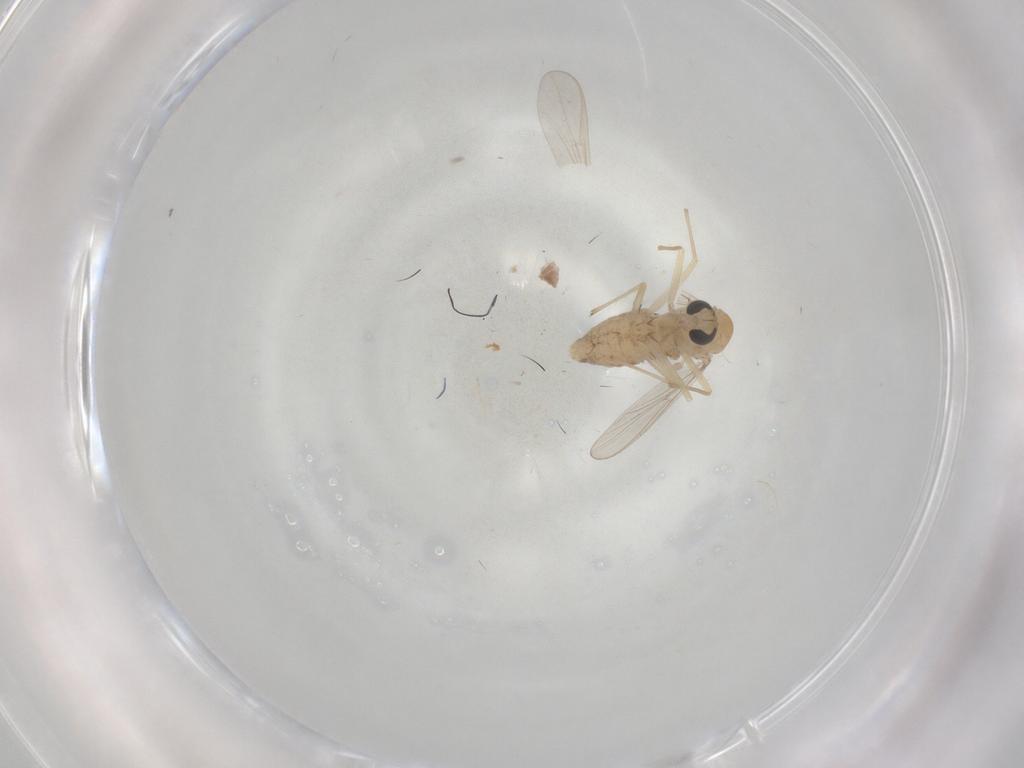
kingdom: Animalia
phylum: Arthropoda
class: Insecta
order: Diptera
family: Chironomidae
